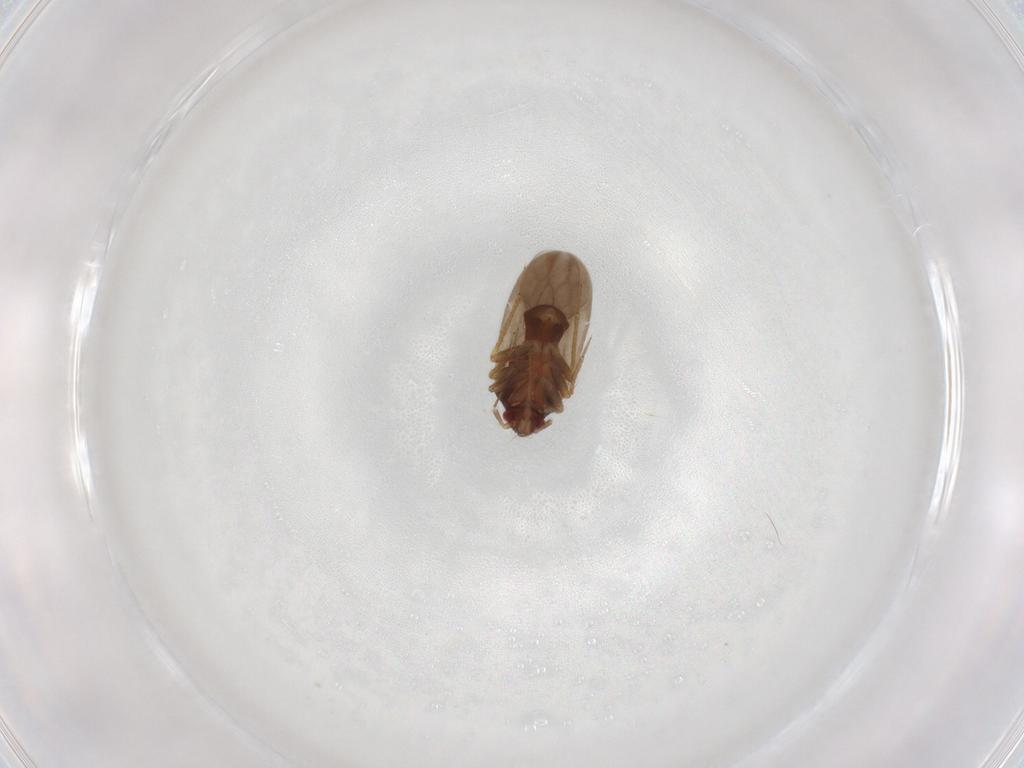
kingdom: Animalia
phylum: Arthropoda
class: Insecta
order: Hemiptera
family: Ceratocombidae
